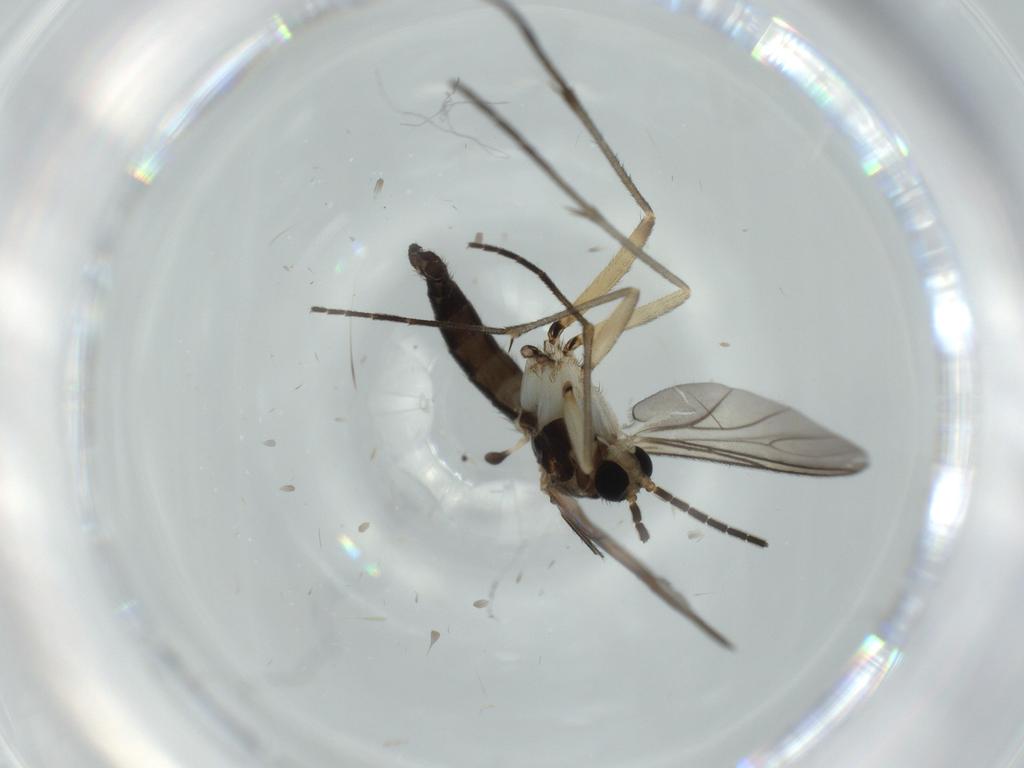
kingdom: Animalia
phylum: Arthropoda
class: Insecta
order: Diptera
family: Sciaridae
